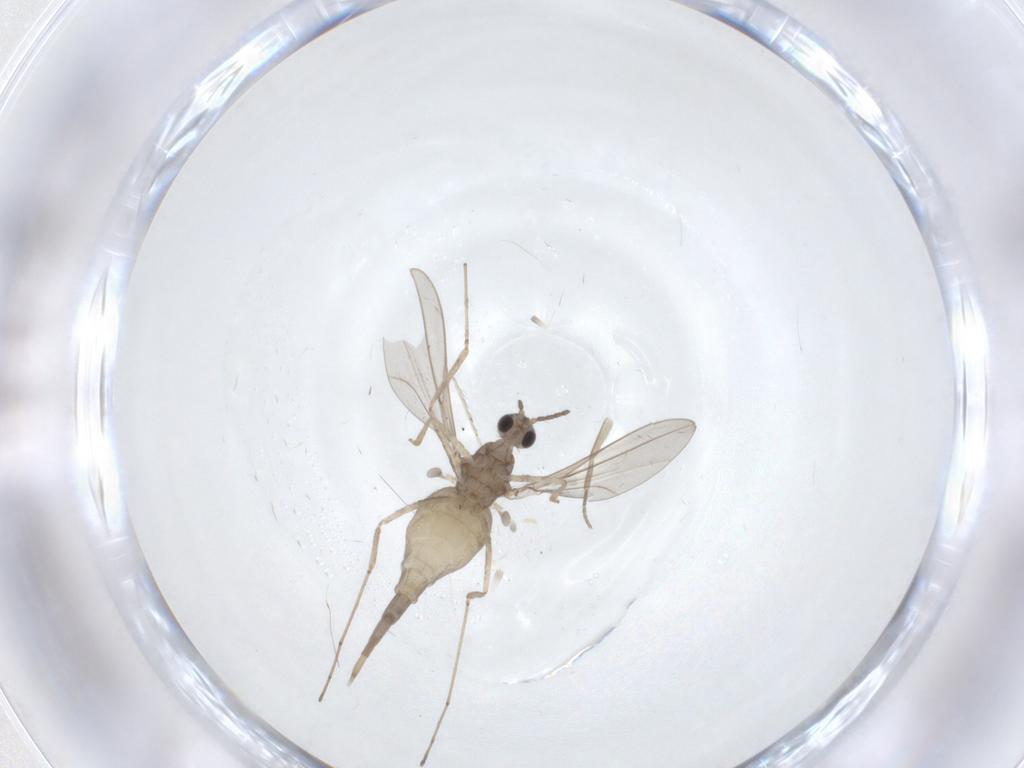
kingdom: Animalia
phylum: Arthropoda
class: Insecta
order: Diptera
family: Cecidomyiidae
